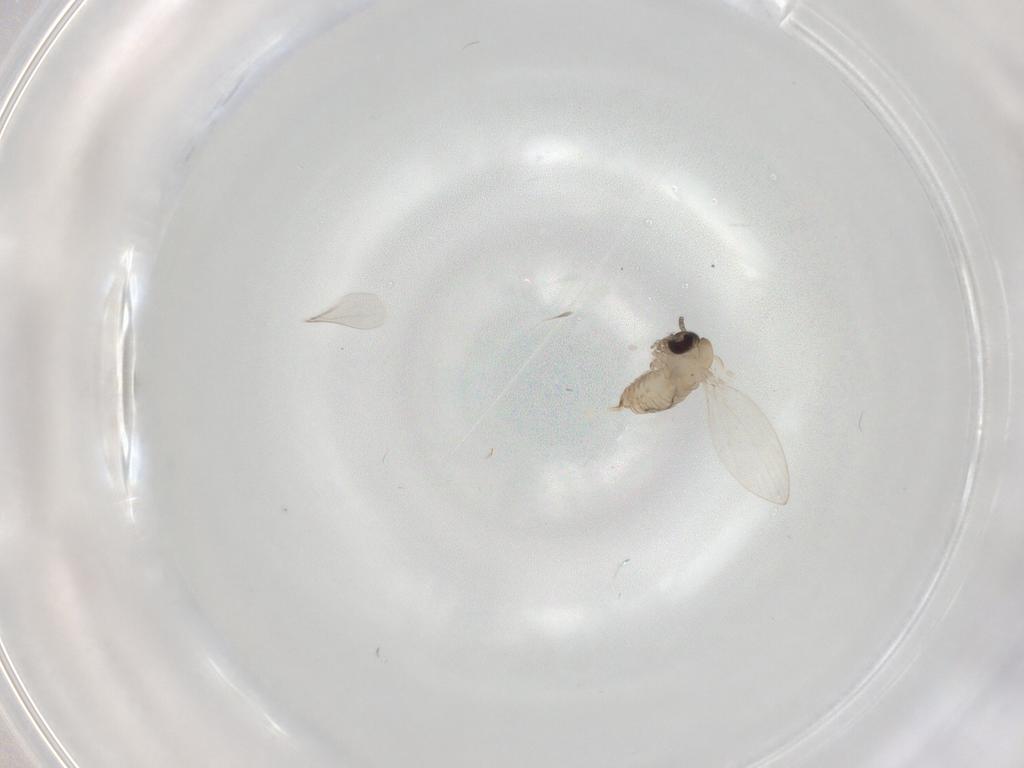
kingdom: Animalia
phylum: Arthropoda
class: Insecta
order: Diptera
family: Psychodidae
